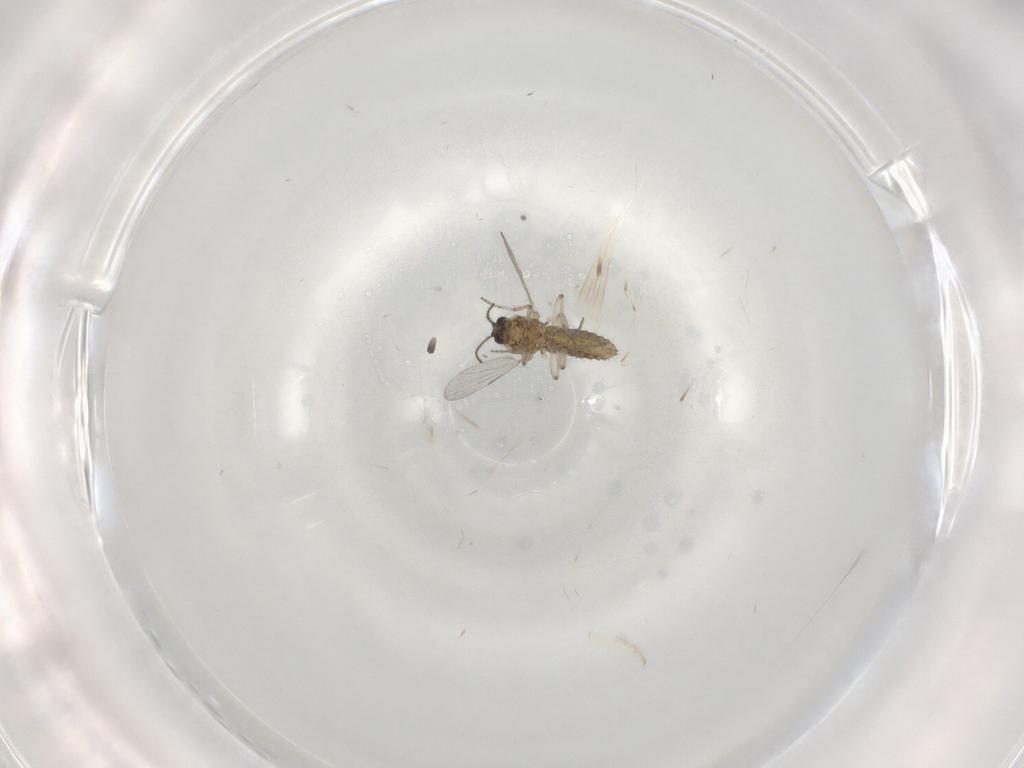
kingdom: Animalia
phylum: Arthropoda
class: Insecta
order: Diptera
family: Ceratopogonidae
